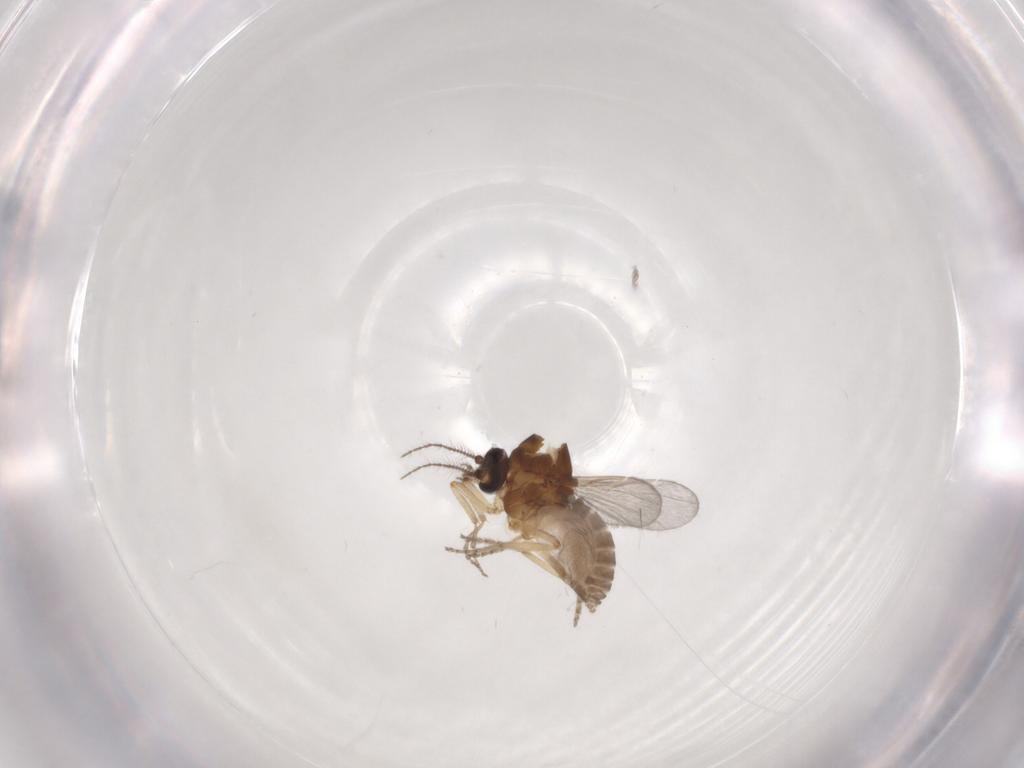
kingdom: Animalia
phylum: Arthropoda
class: Insecta
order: Diptera
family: Ceratopogonidae
